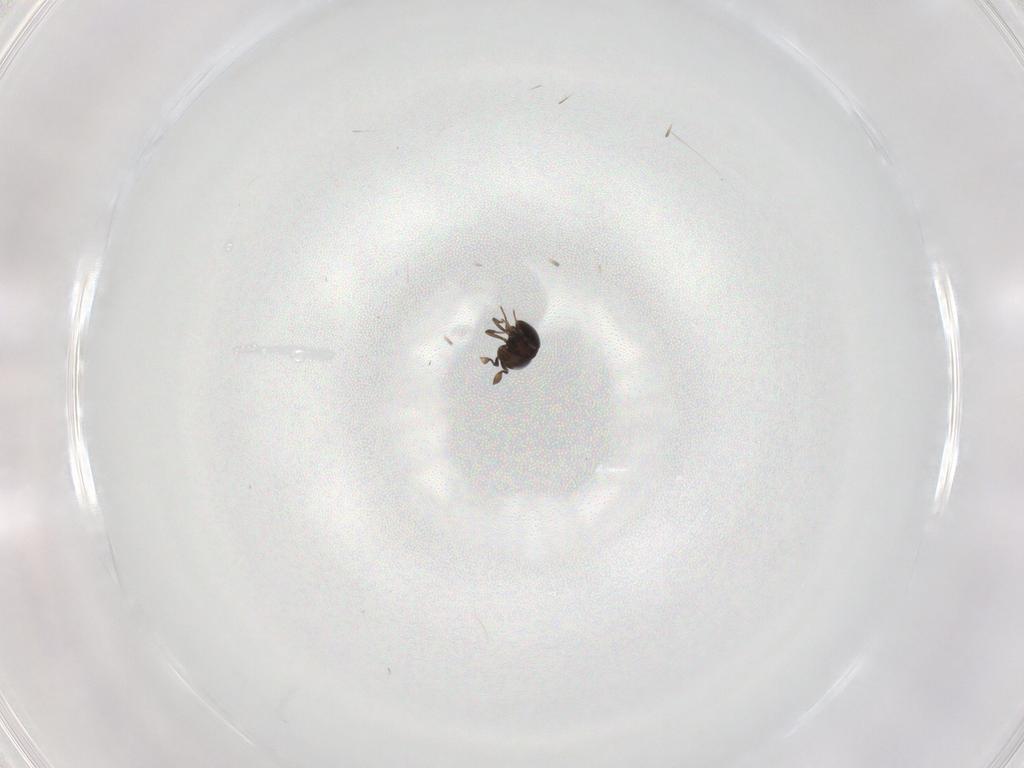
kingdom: Animalia
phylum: Arthropoda
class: Insecta
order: Hymenoptera
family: Scelionidae
